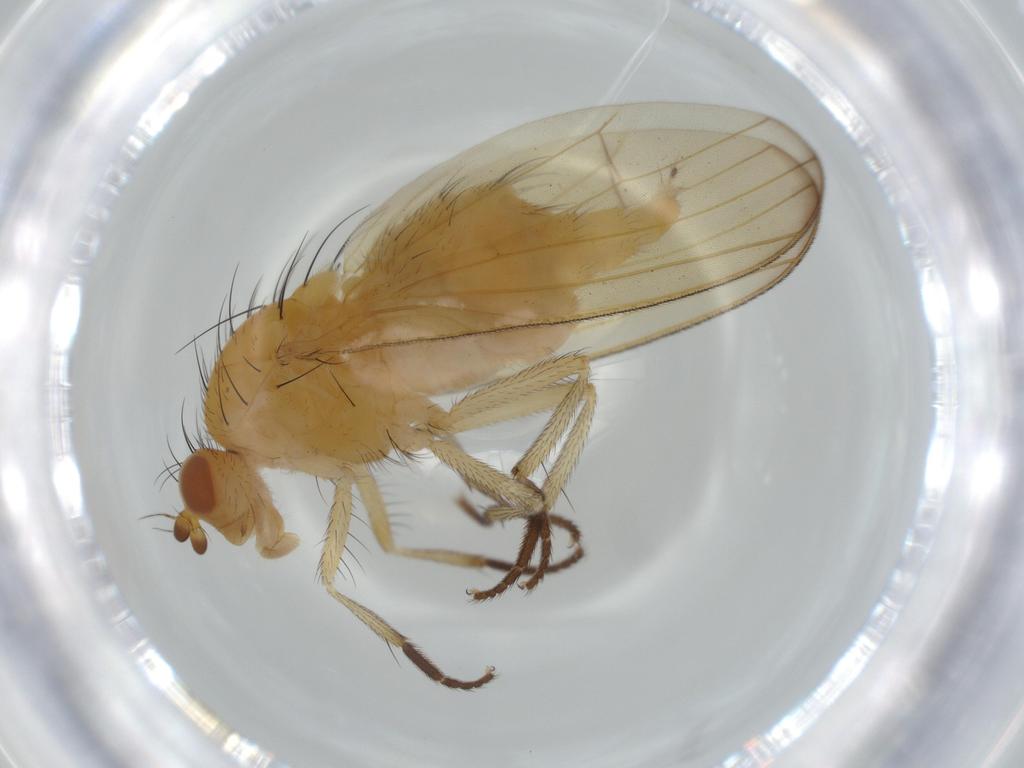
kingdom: Animalia
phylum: Arthropoda
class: Insecta
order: Diptera
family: Lauxaniidae
